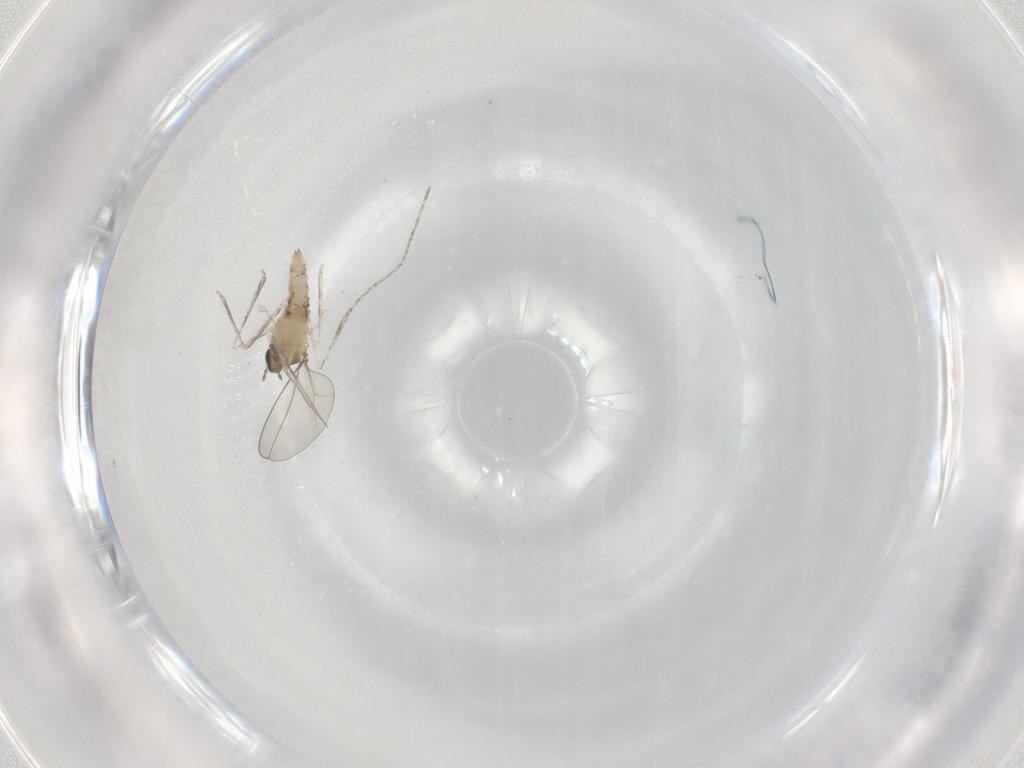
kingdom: Animalia
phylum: Arthropoda
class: Insecta
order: Diptera
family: Cecidomyiidae
